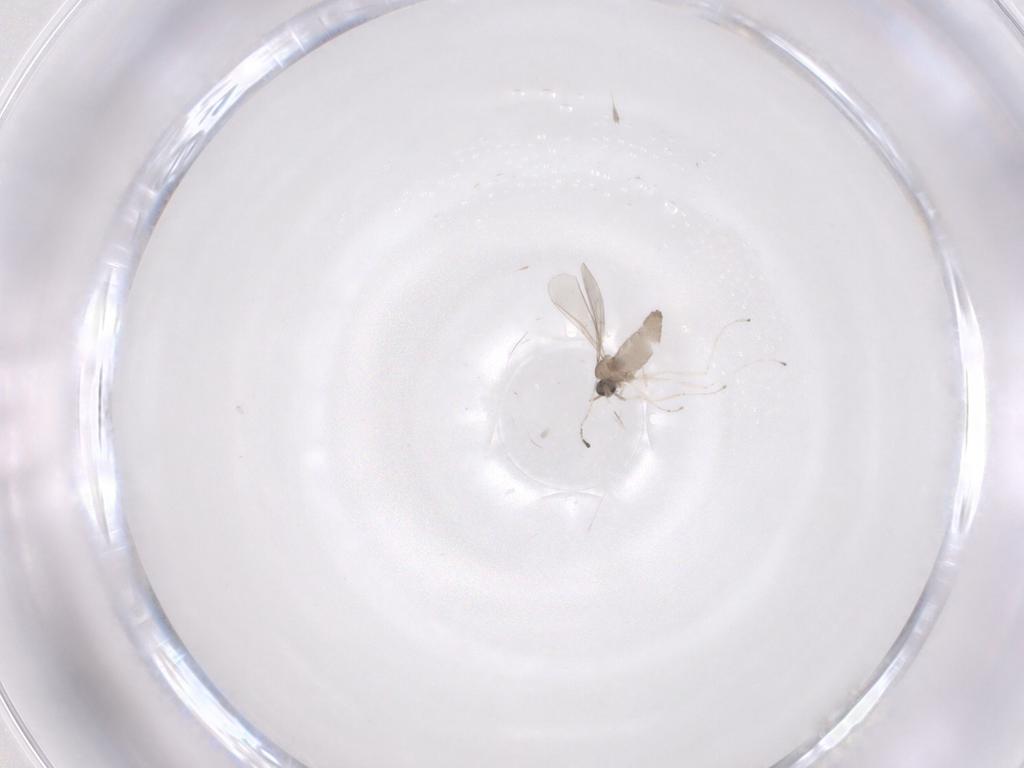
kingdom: Animalia
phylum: Arthropoda
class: Insecta
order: Diptera
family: Cecidomyiidae
